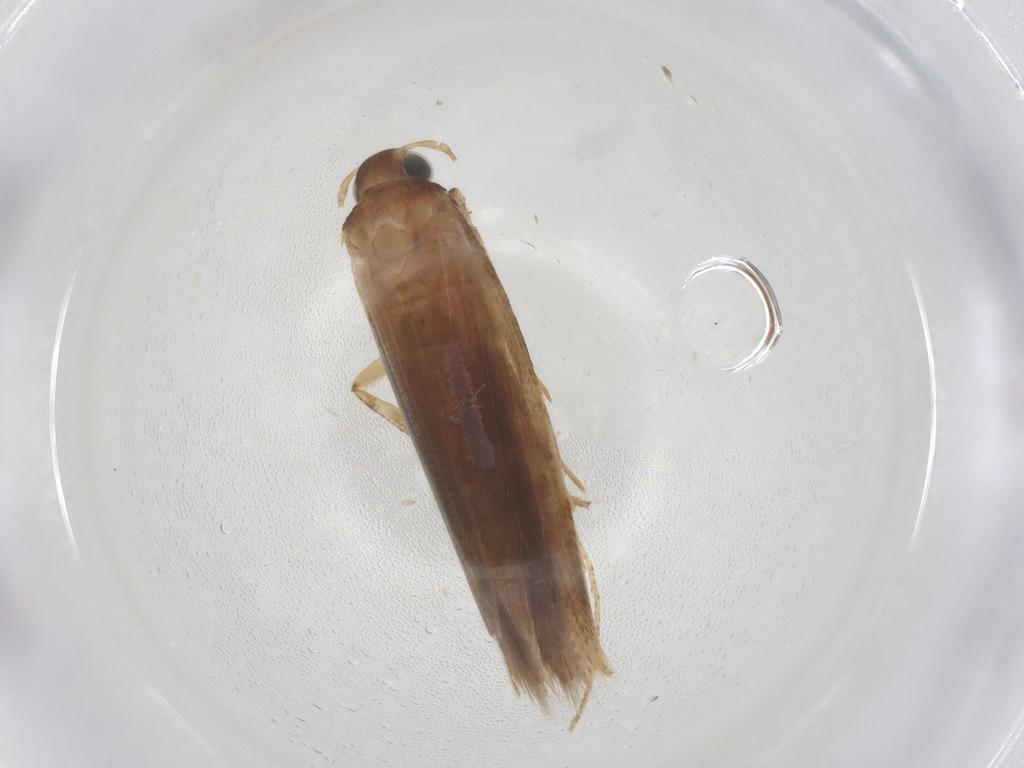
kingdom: Animalia
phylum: Arthropoda
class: Insecta
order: Lepidoptera
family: Gelechiidae
